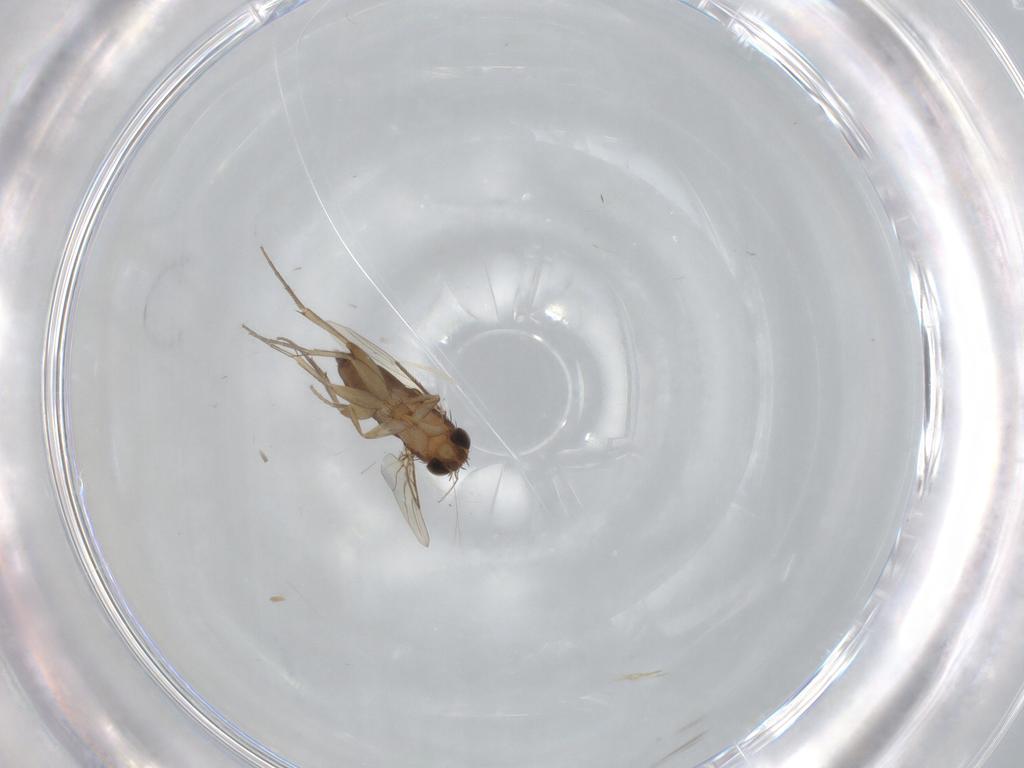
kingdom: Animalia
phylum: Arthropoda
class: Insecta
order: Diptera
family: Phoridae
